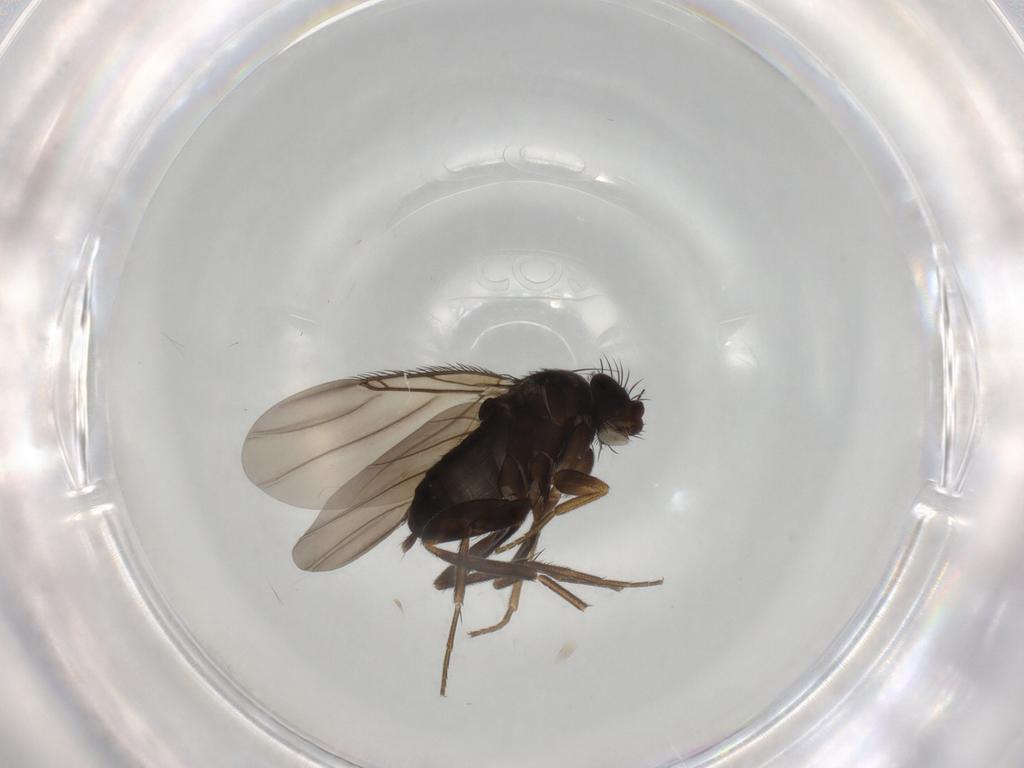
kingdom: Animalia
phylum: Arthropoda
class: Insecta
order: Diptera
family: Phoridae
